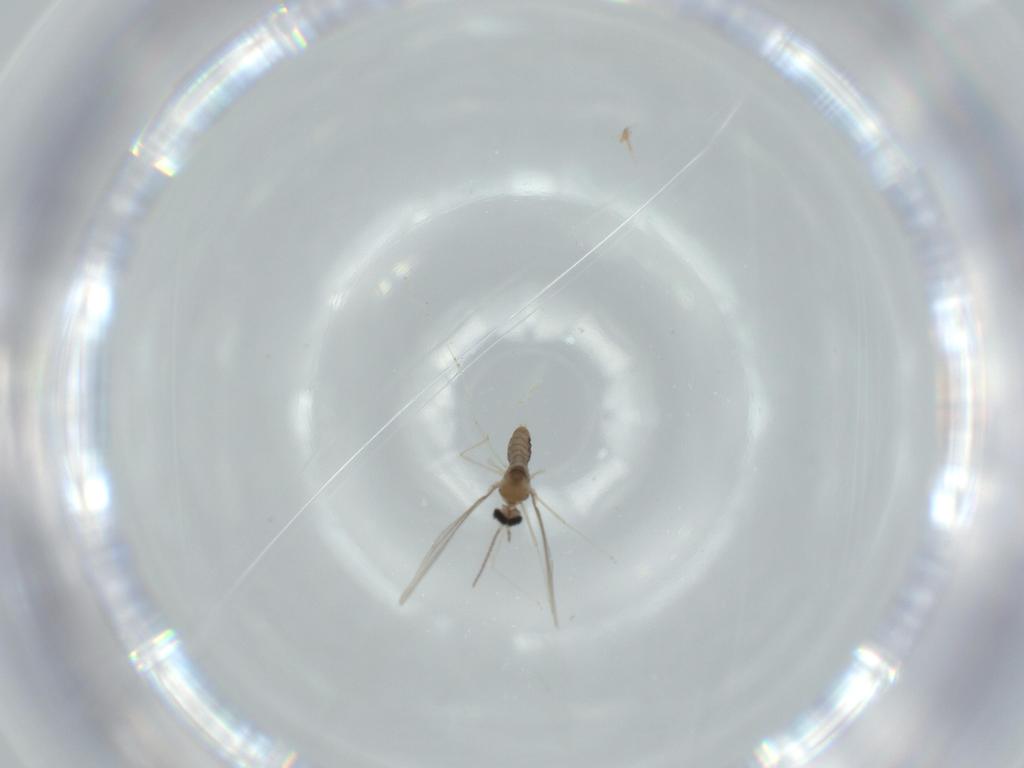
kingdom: Animalia
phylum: Arthropoda
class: Insecta
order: Diptera
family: Cecidomyiidae
